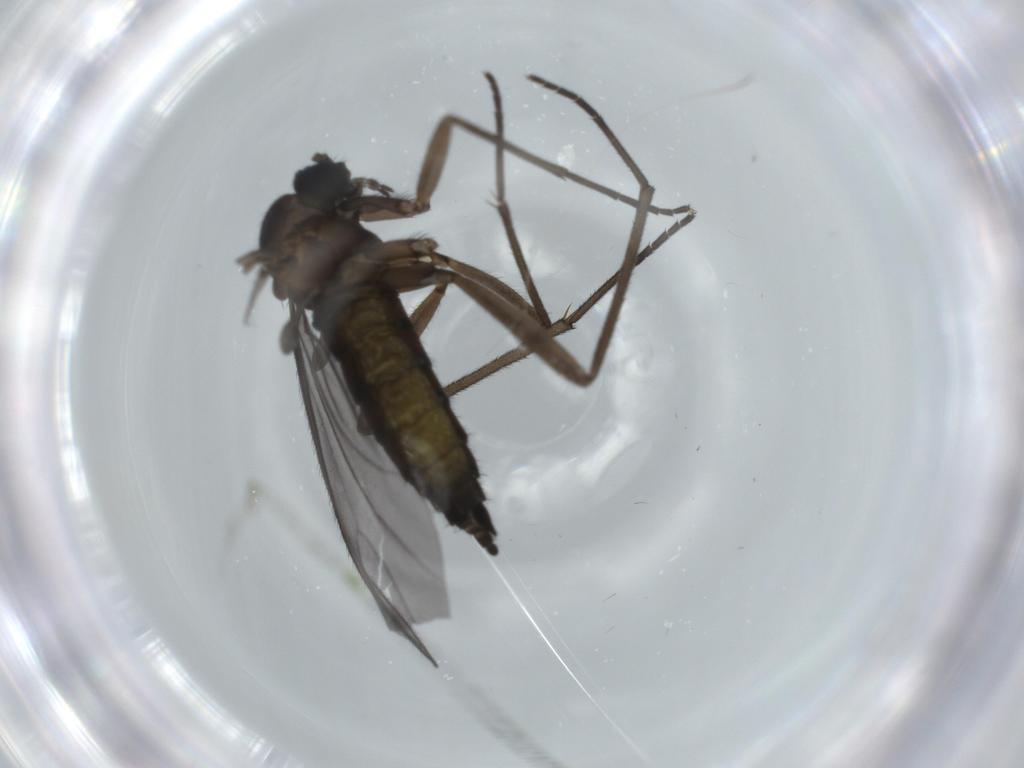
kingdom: Animalia
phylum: Arthropoda
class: Insecta
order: Diptera
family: Sciaridae
